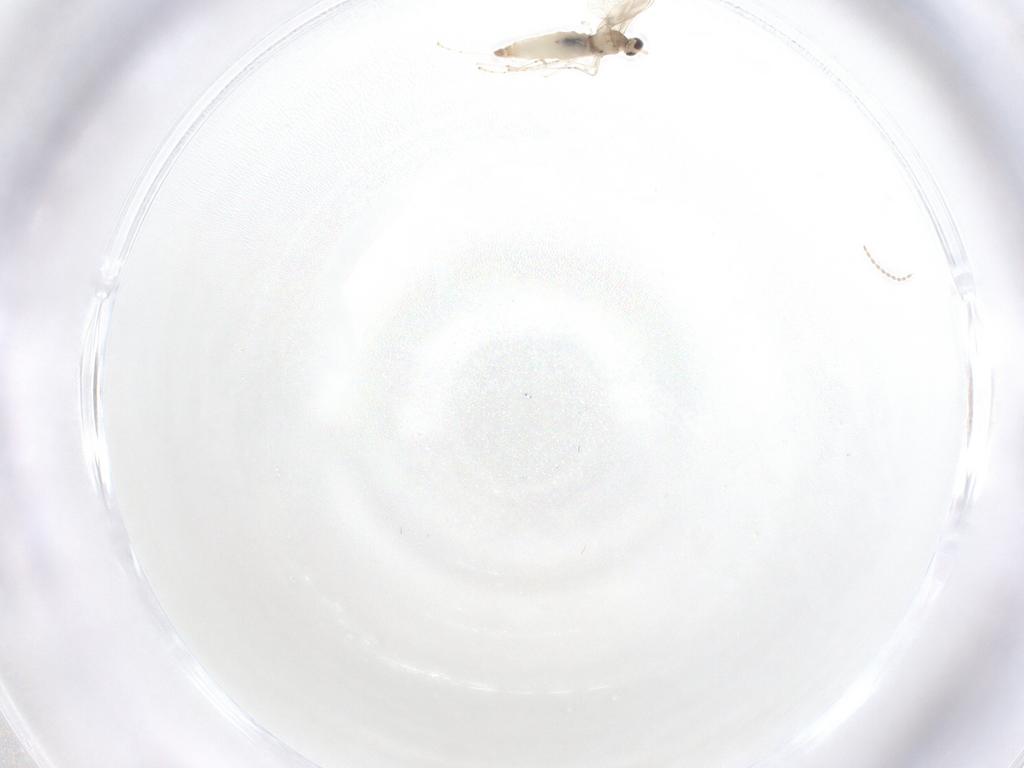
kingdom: Animalia
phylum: Arthropoda
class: Insecta
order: Diptera
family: Cecidomyiidae
